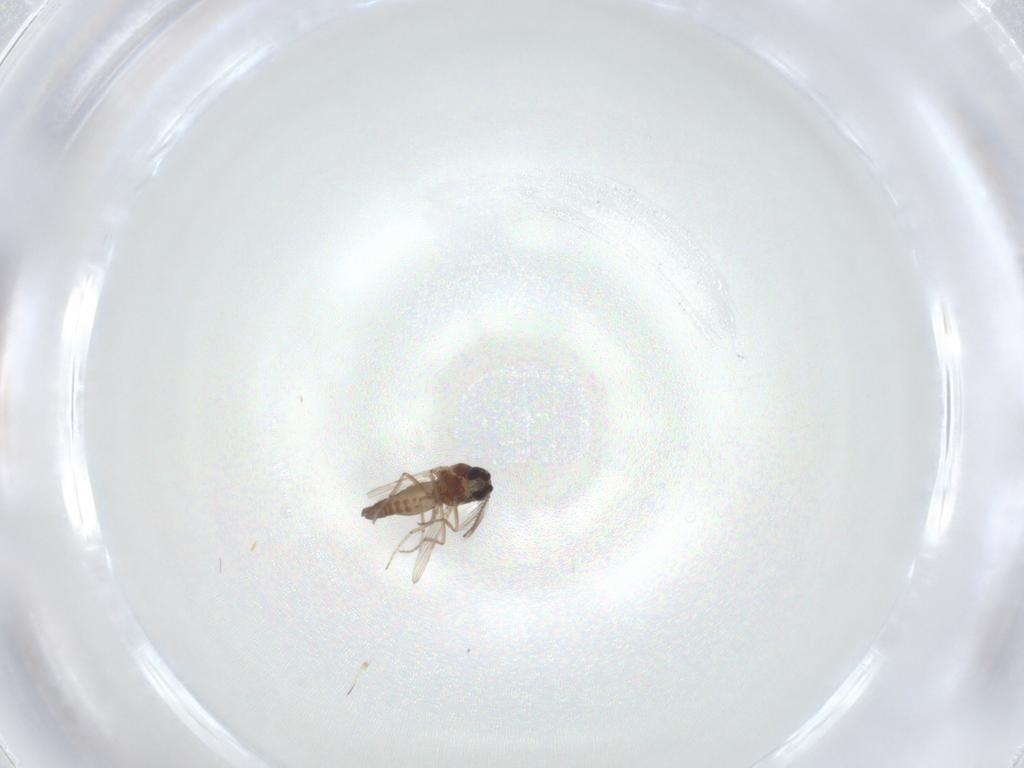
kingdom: Animalia
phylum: Arthropoda
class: Insecta
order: Diptera
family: Ceratopogonidae
